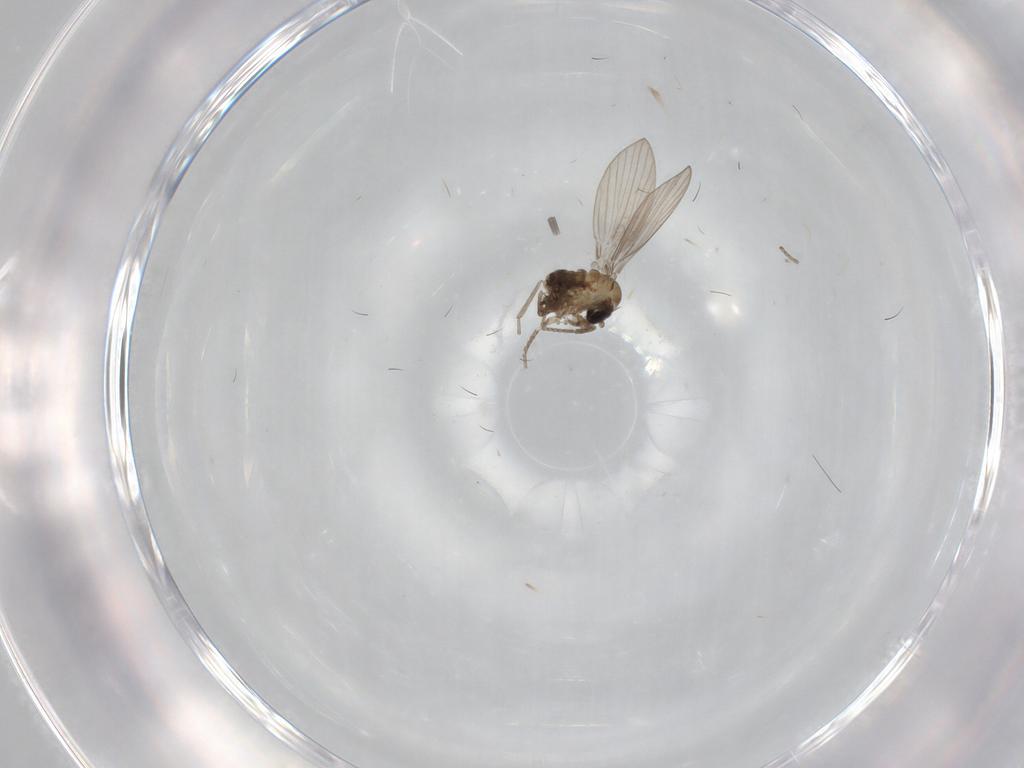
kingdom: Animalia
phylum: Arthropoda
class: Insecta
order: Diptera
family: Psychodidae
